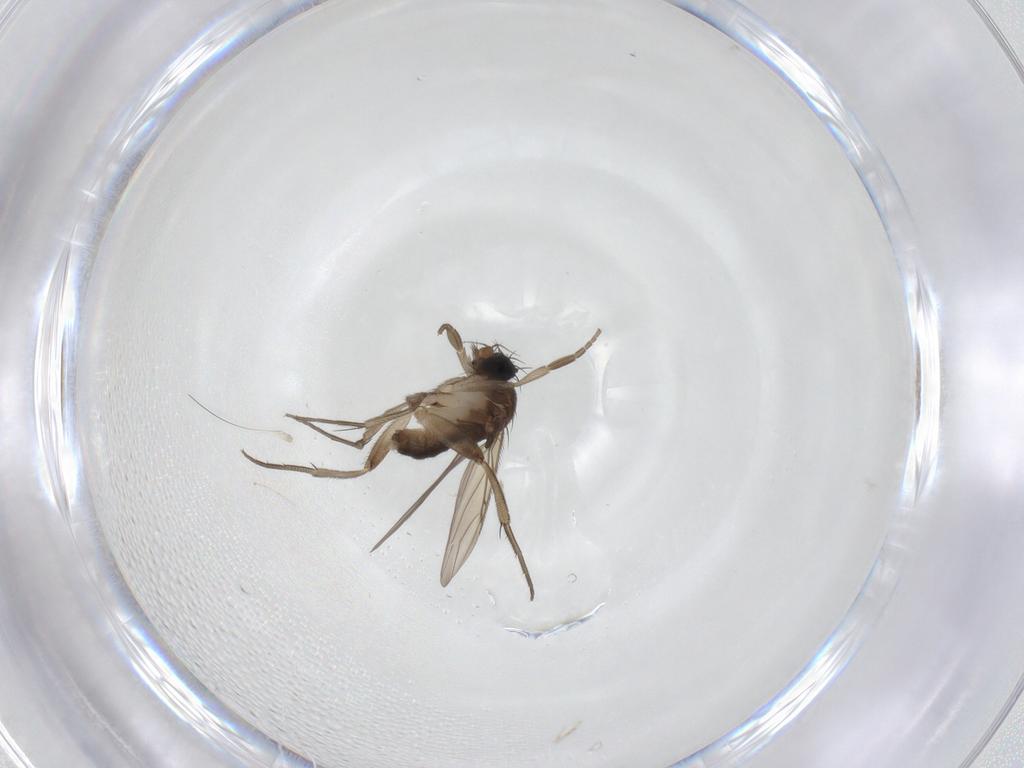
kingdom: Animalia
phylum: Arthropoda
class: Insecta
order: Diptera
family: Phoridae
